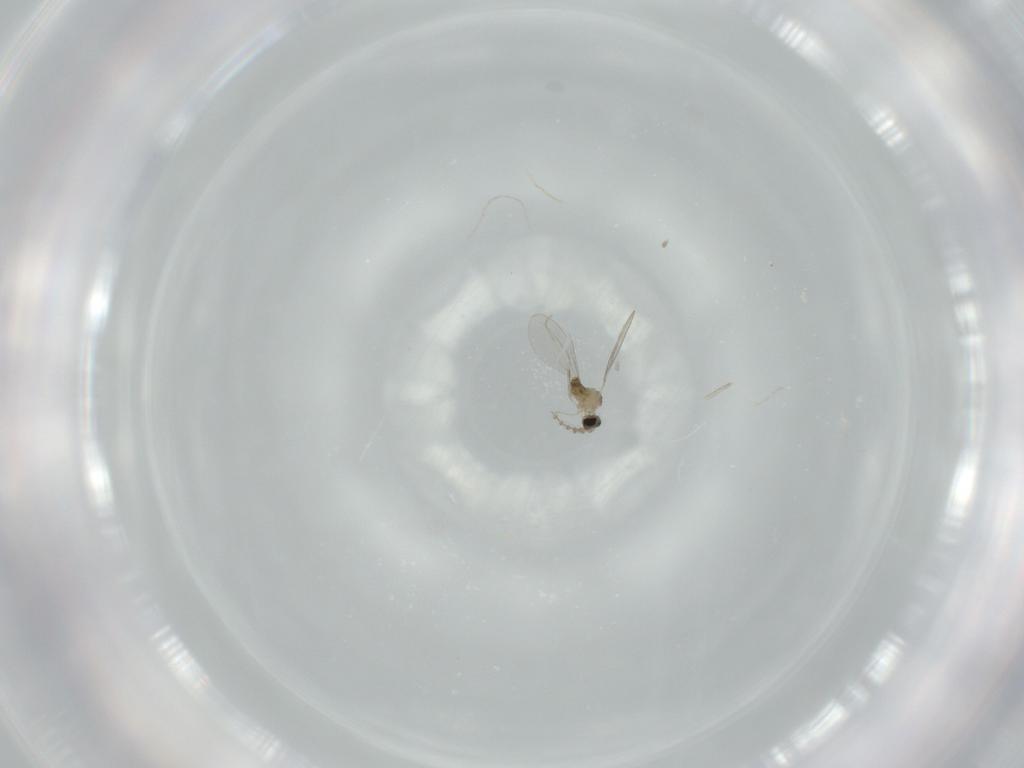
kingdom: Animalia
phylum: Arthropoda
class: Insecta
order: Diptera
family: Cecidomyiidae
